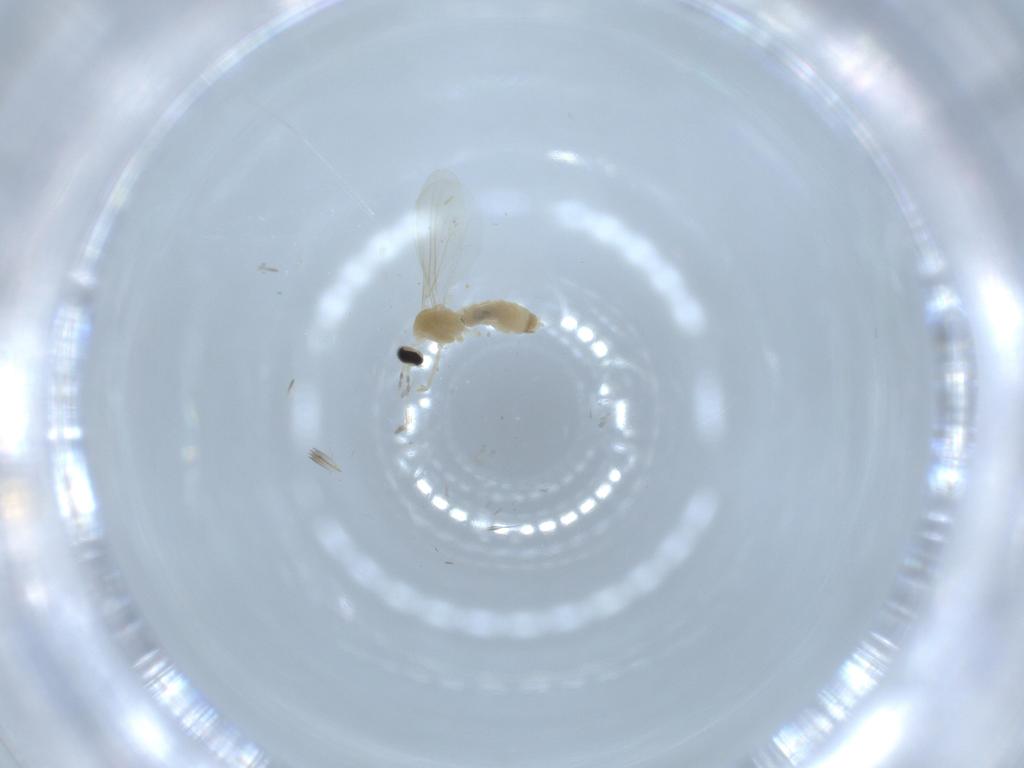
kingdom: Animalia
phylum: Arthropoda
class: Insecta
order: Diptera
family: Chironomidae
